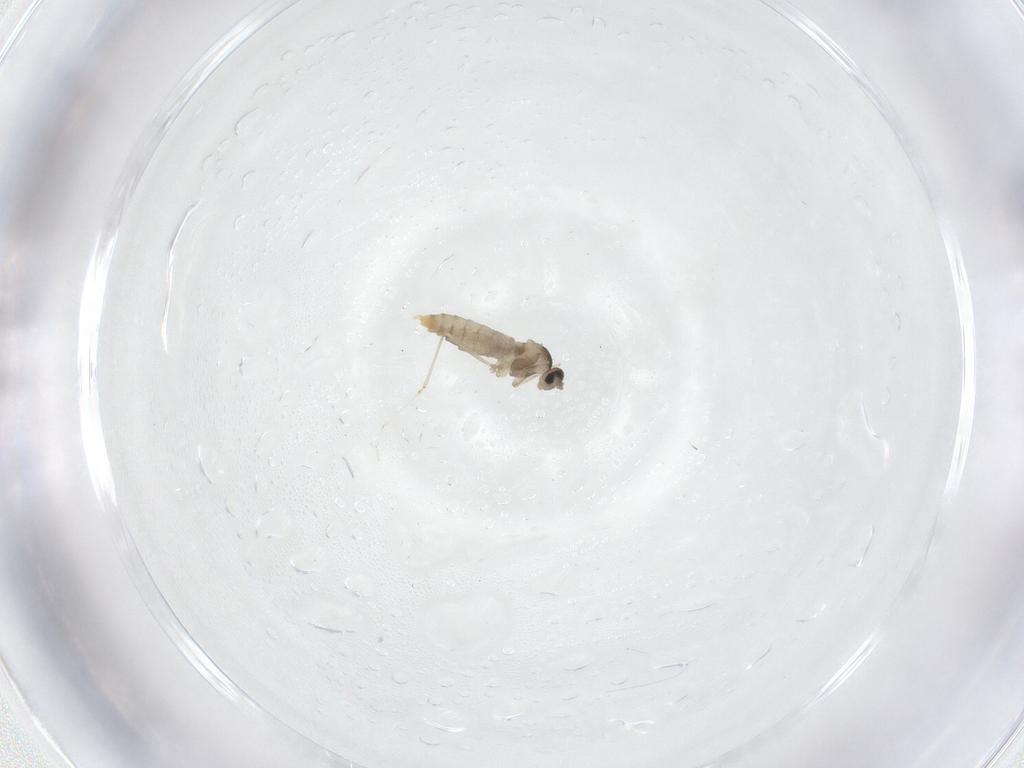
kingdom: Animalia
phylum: Arthropoda
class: Insecta
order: Diptera
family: Cecidomyiidae
